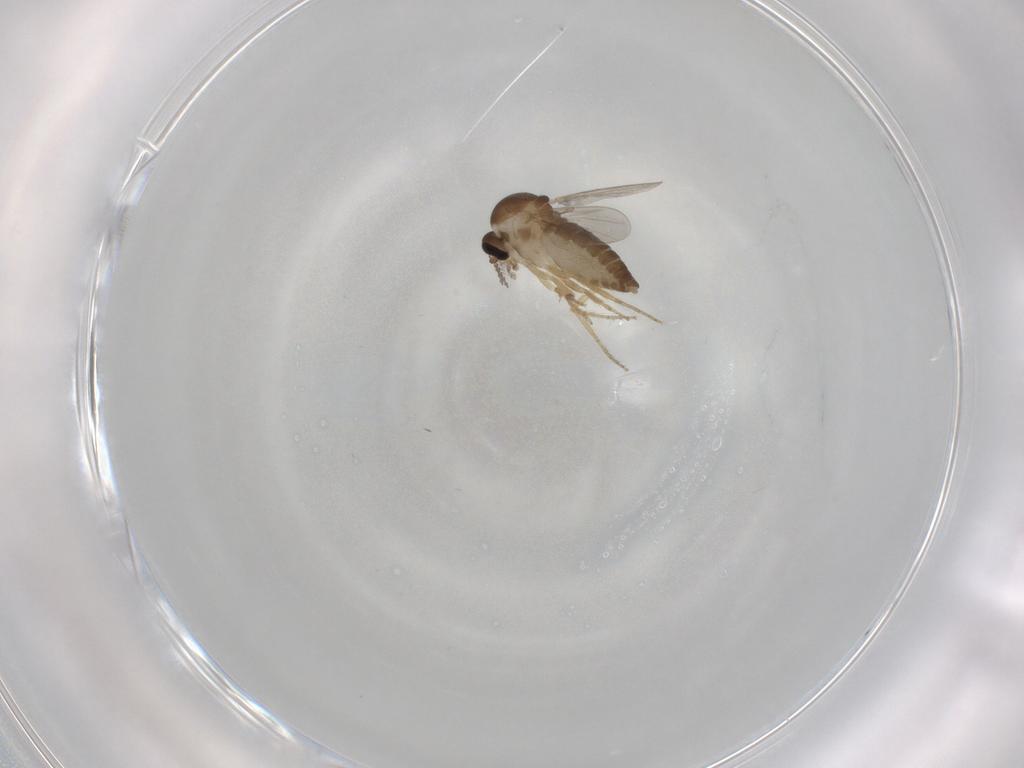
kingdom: Animalia
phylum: Arthropoda
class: Insecta
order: Diptera
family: Ceratopogonidae
